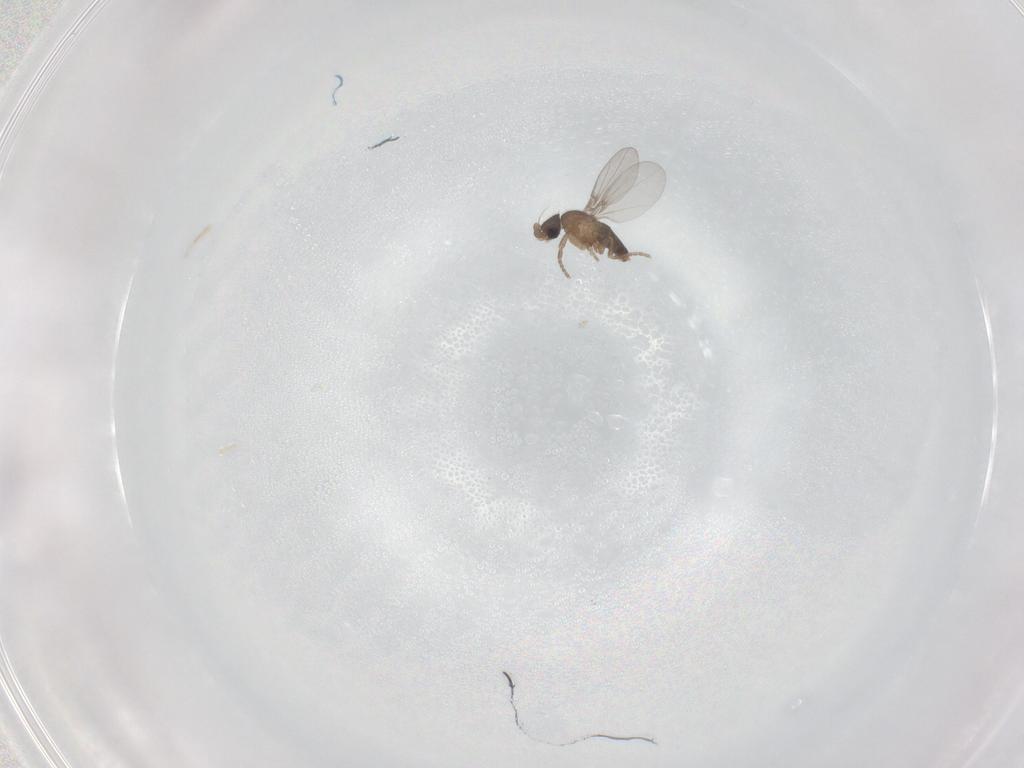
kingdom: Animalia
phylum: Arthropoda
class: Insecta
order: Diptera
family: Phoridae
